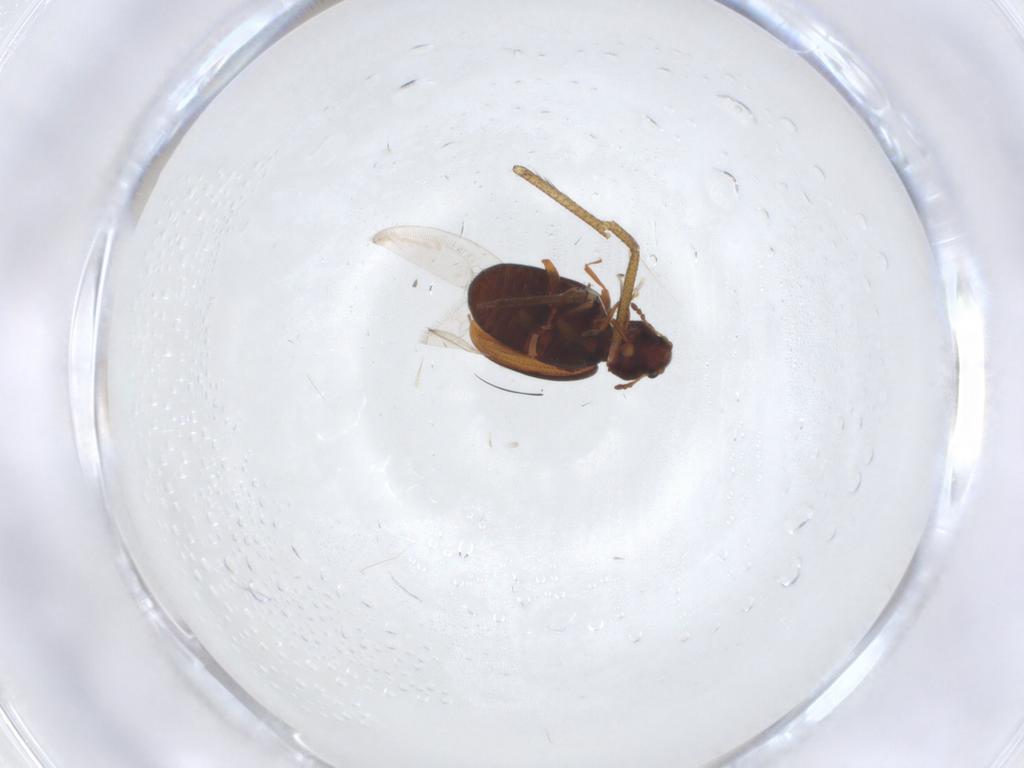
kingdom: Animalia
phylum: Arthropoda
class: Insecta
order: Coleoptera
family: Latridiidae
